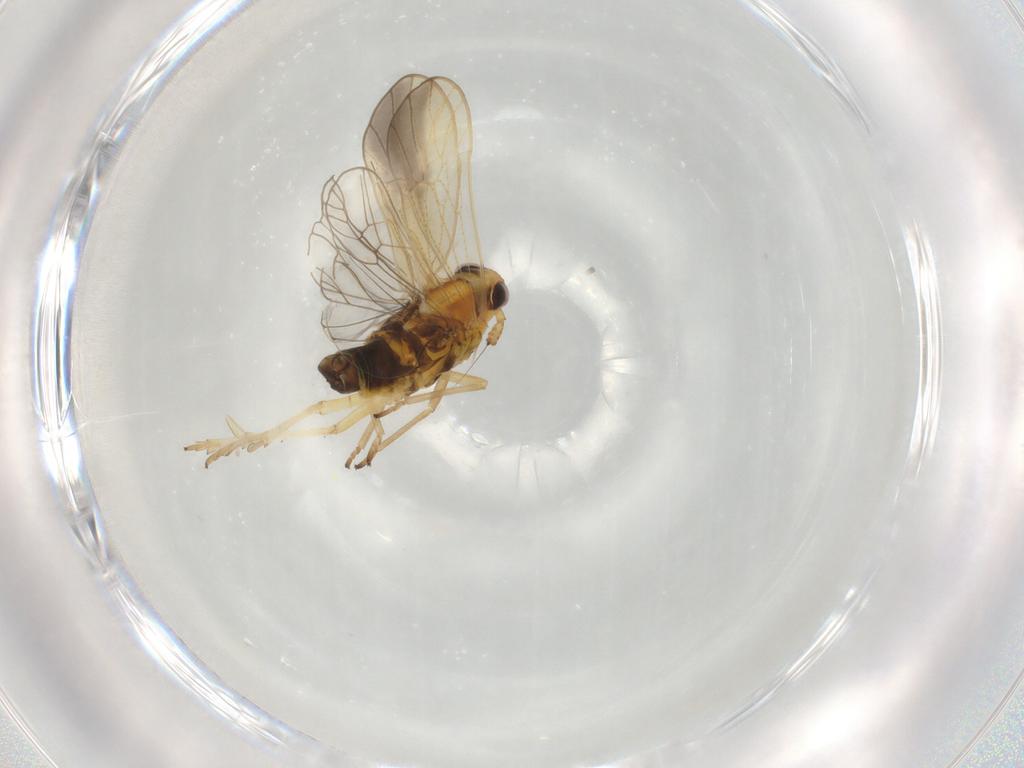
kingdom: Animalia
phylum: Arthropoda
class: Insecta
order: Hemiptera
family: Delphacidae
